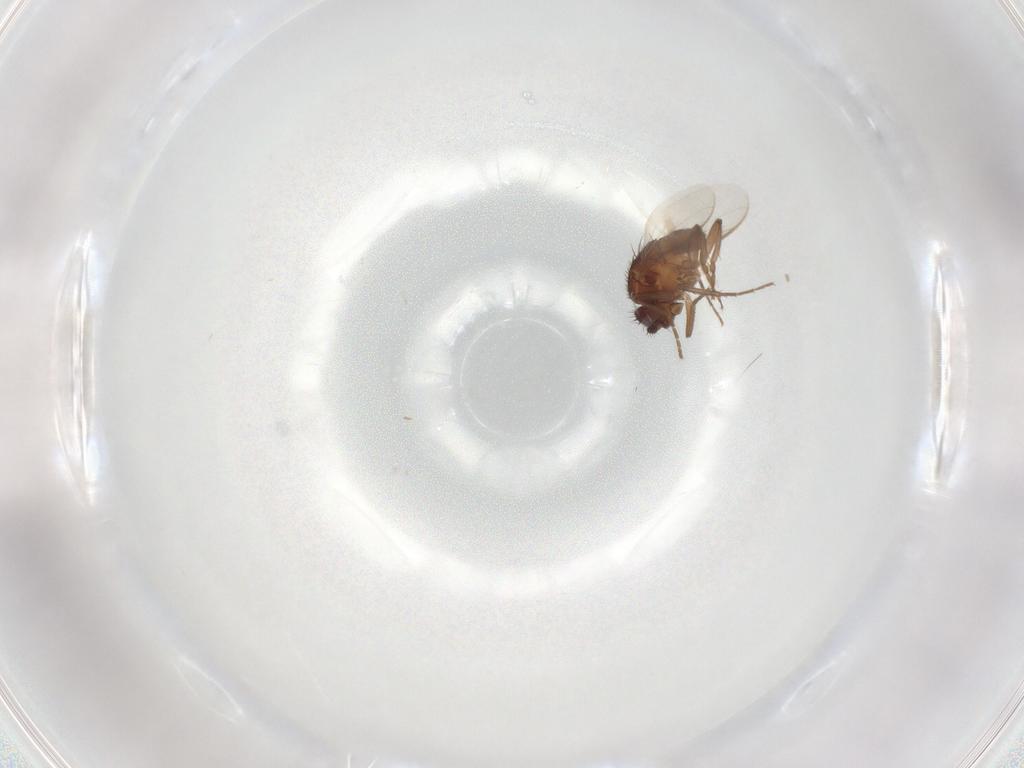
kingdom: Animalia
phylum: Arthropoda
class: Insecta
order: Diptera
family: Sphaeroceridae
